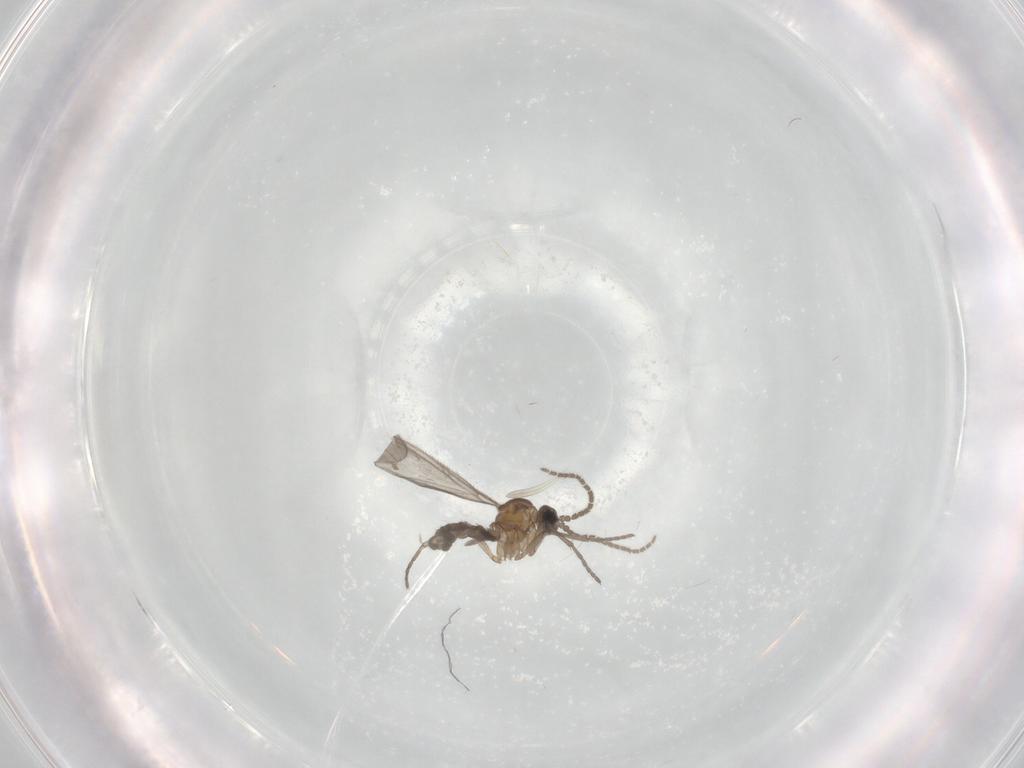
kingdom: Animalia
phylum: Arthropoda
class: Insecta
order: Diptera
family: Sciaridae
